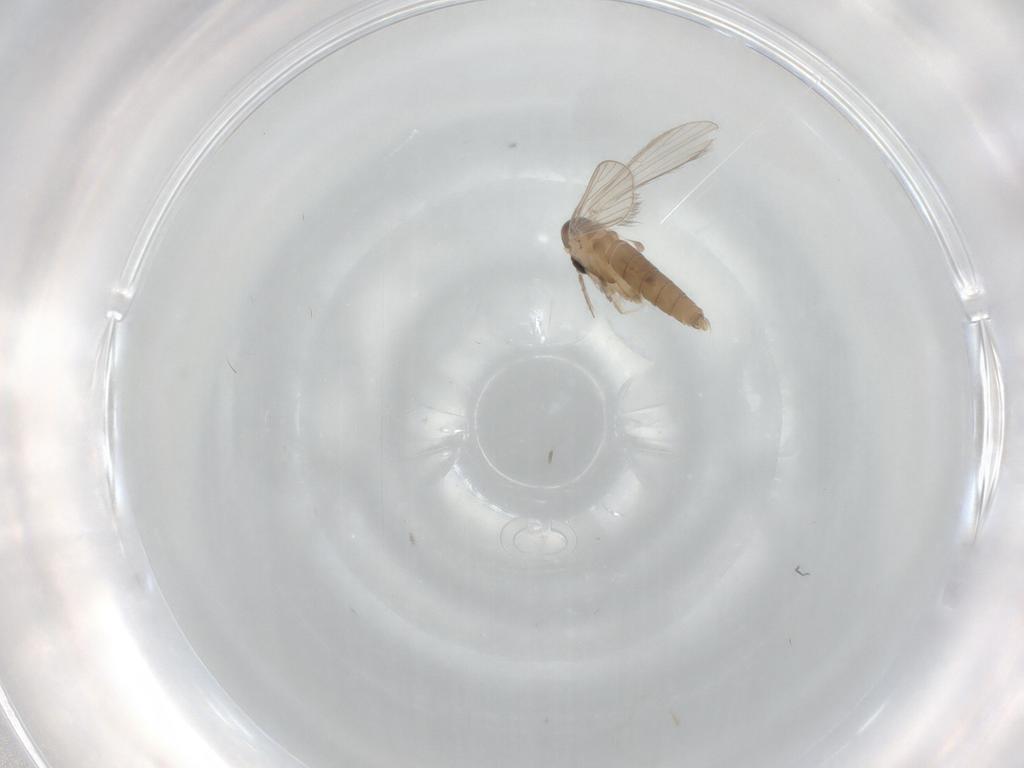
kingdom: Animalia
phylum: Arthropoda
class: Insecta
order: Diptera
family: Psychodidae
